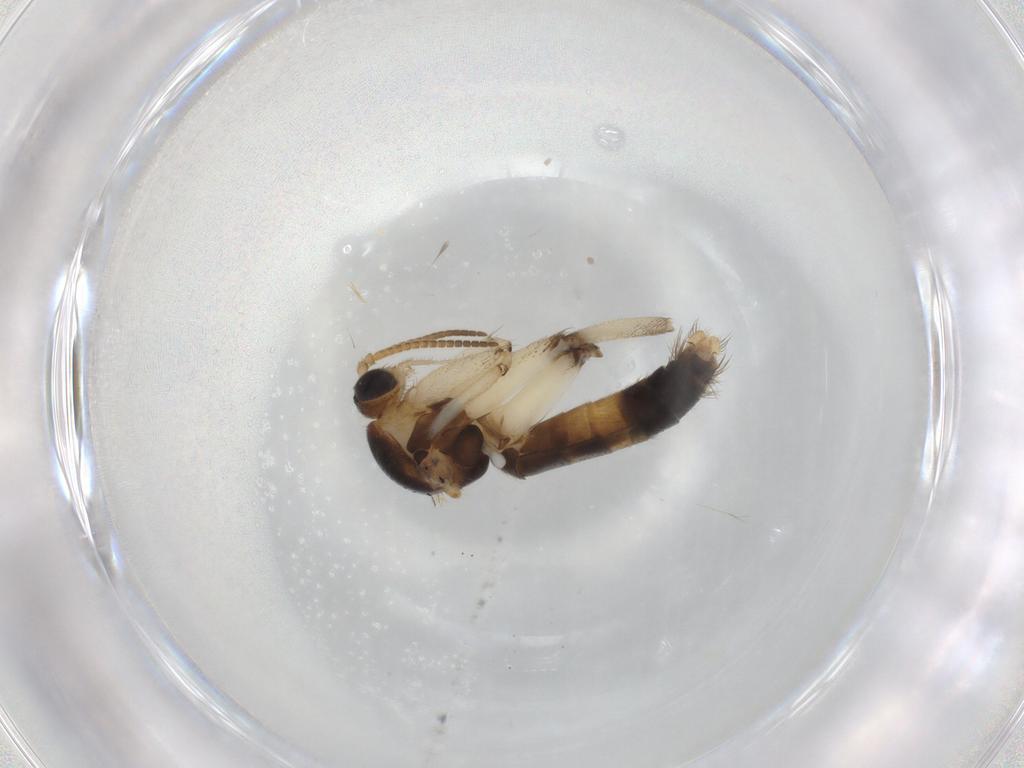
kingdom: Animalia
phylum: Arthropoda
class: Insecta
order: Diptera
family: Mycetophilidae
